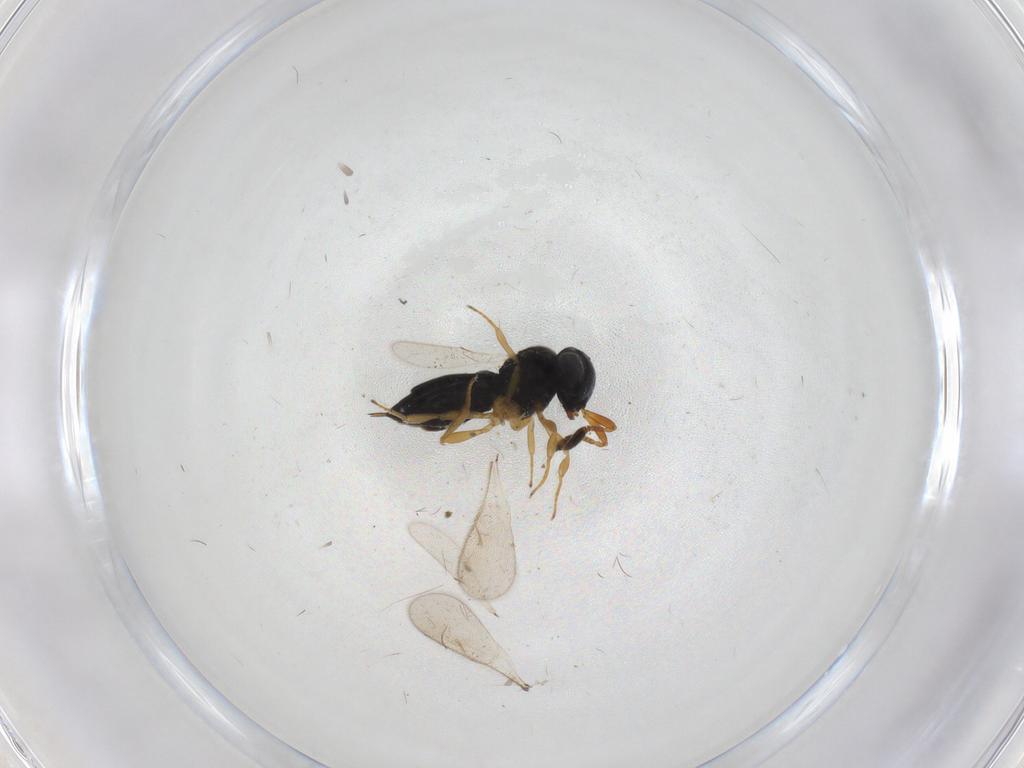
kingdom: Animalia
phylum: Arthropoda
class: Insecta
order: Hymenoptera
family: Scelionidae
